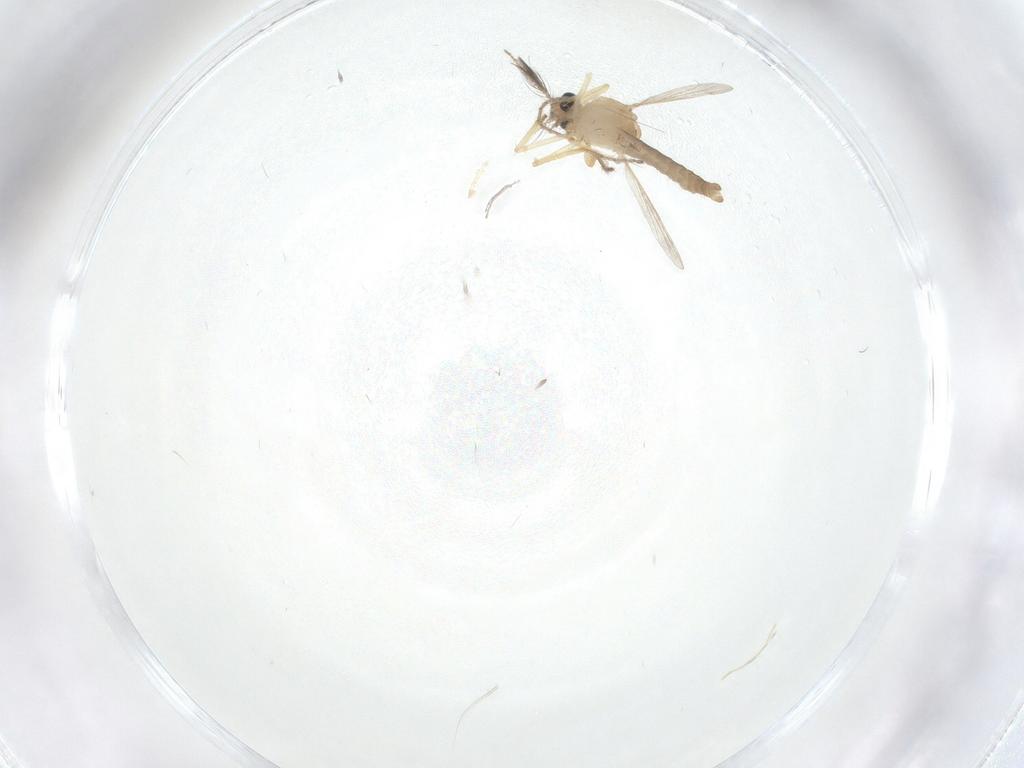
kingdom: Animalia
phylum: Arthropoda
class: Insecta
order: Diptera
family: Ceratopogonidae
